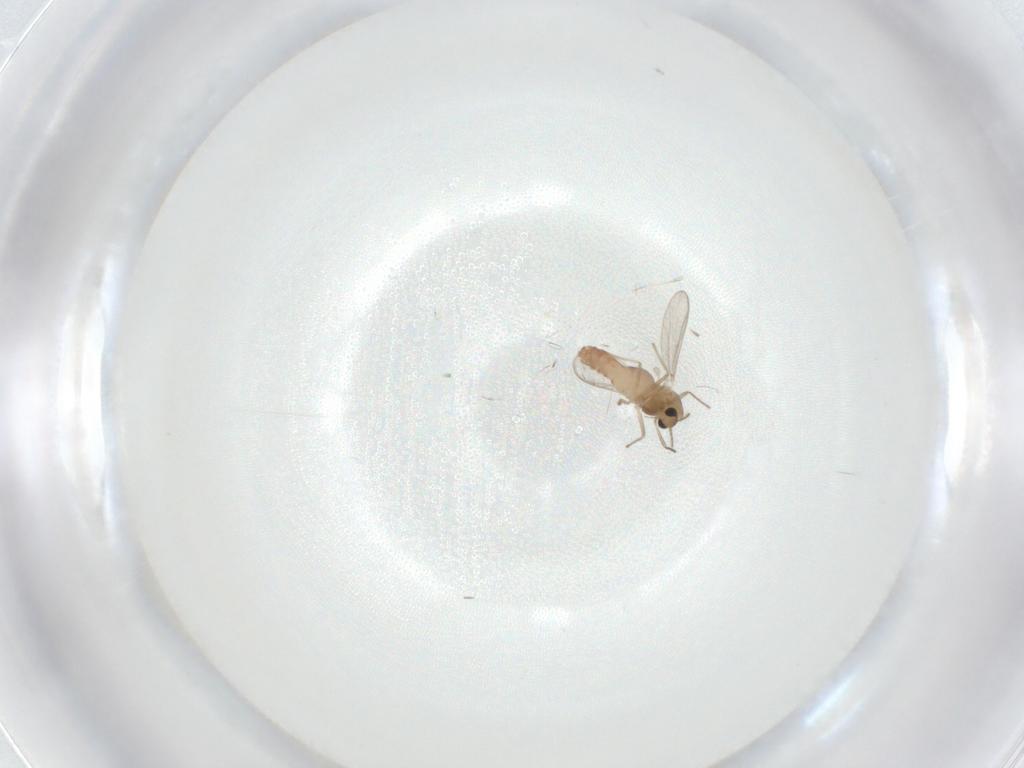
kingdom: Animalia
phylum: Arthropoda
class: Insecta
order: Diptera
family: Chironomidae
